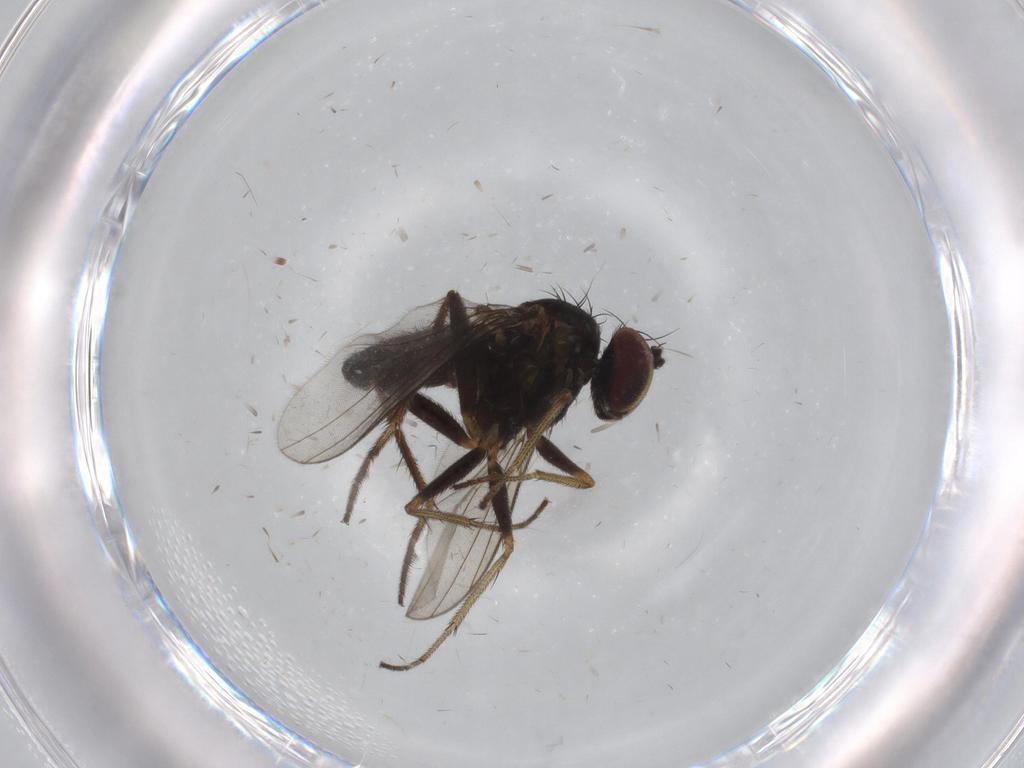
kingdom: Animalia
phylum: Arthropoda
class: Insecta
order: Diptera
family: Dolichopodidae
